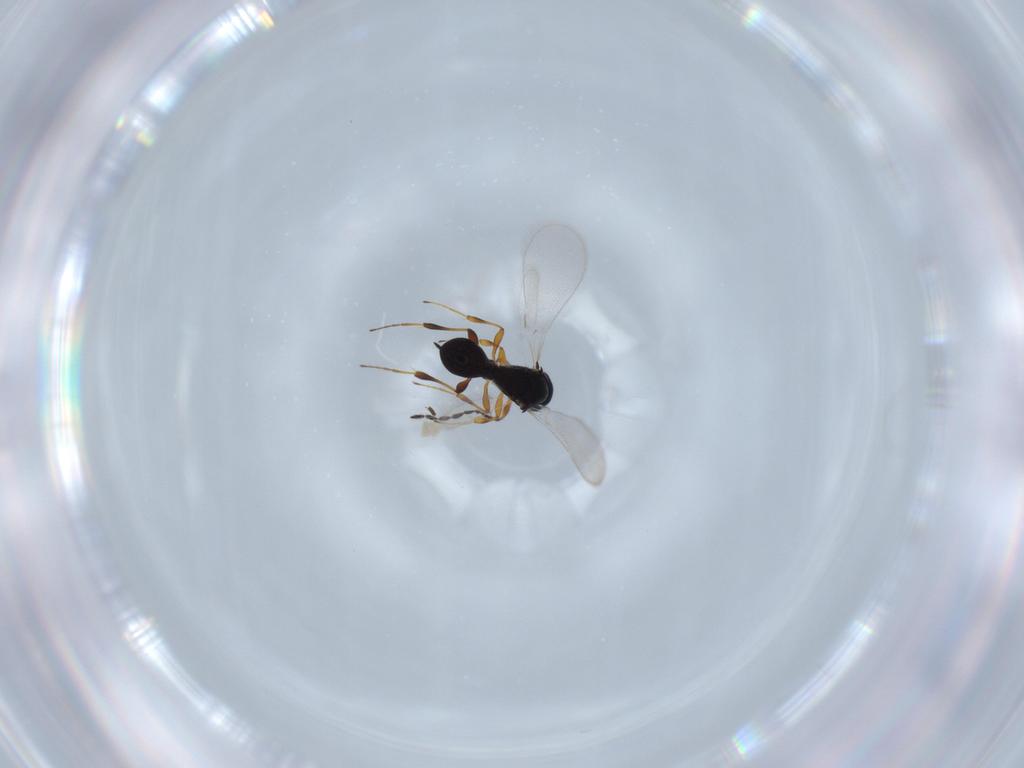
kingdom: Animalia
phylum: Arthropoda
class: Insecta
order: Hymenoptera
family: Platygastridae
